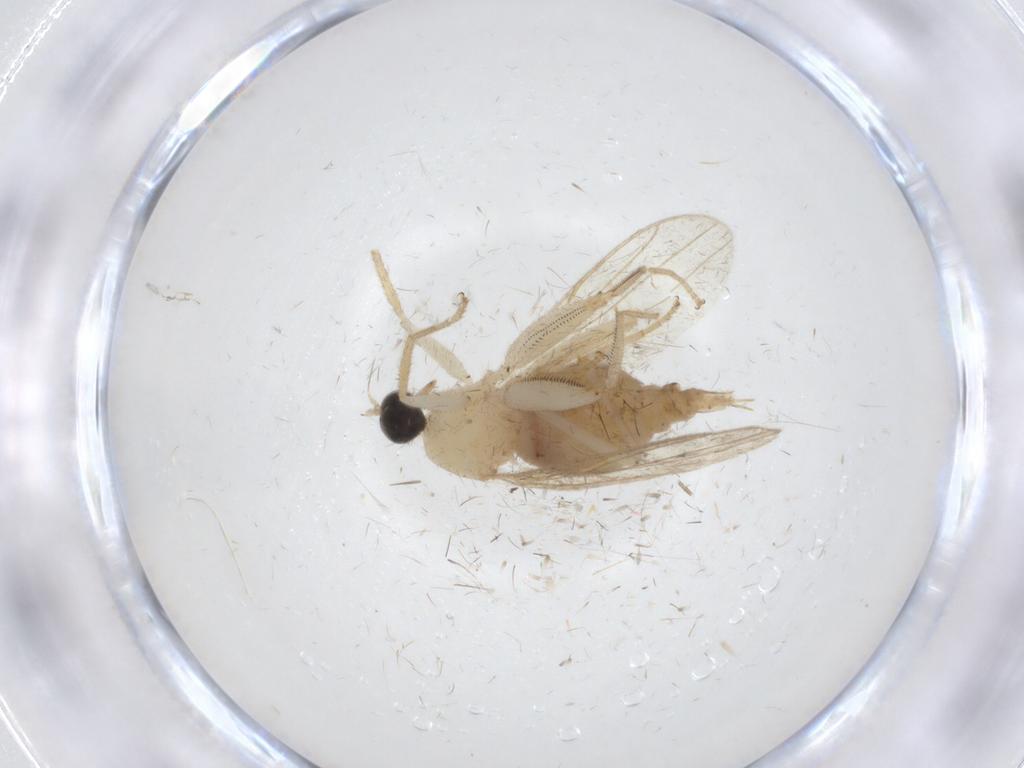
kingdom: Animalia
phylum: Arthropoda
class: Insecta
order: Diptera
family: Hybotidae
